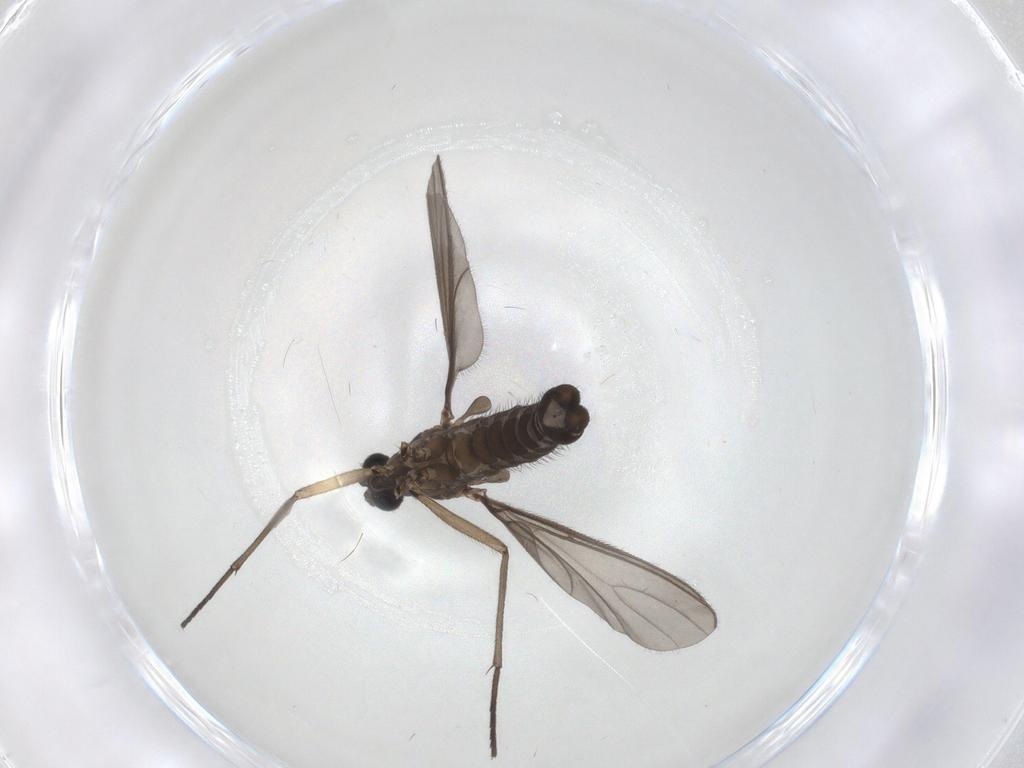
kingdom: Animalia
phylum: Arthropoda
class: Insecta
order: Diptera
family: Sciaridae
